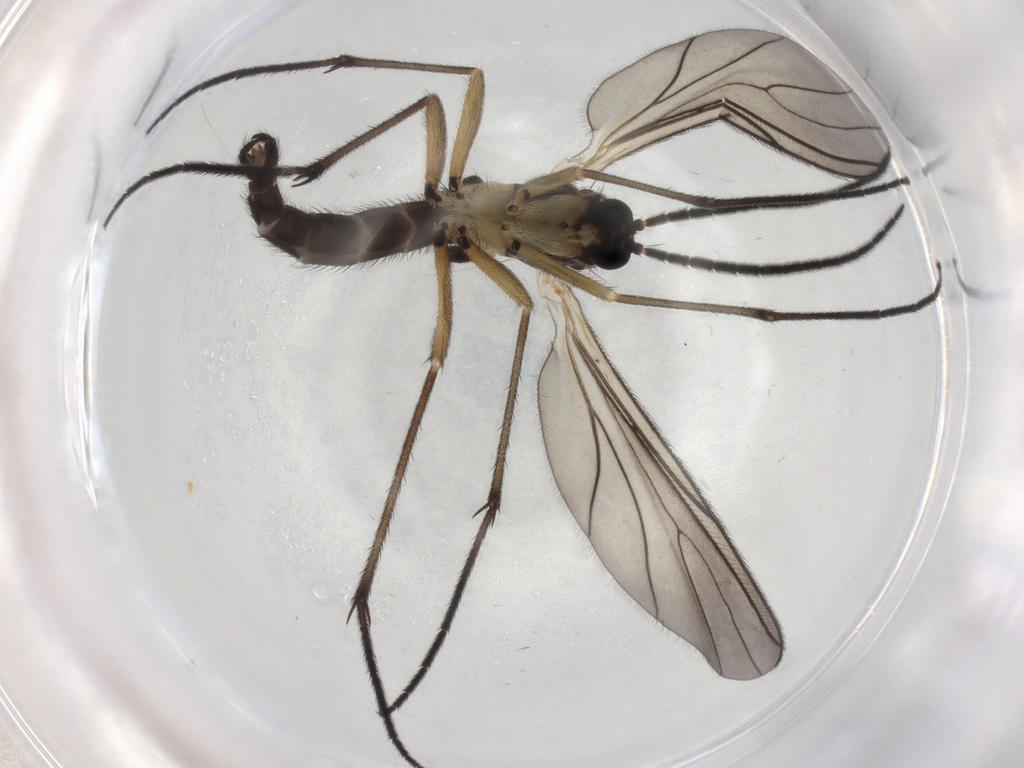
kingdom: Animalia
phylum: Arthropoda
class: Insecta
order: Diptera
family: Sciaridae
